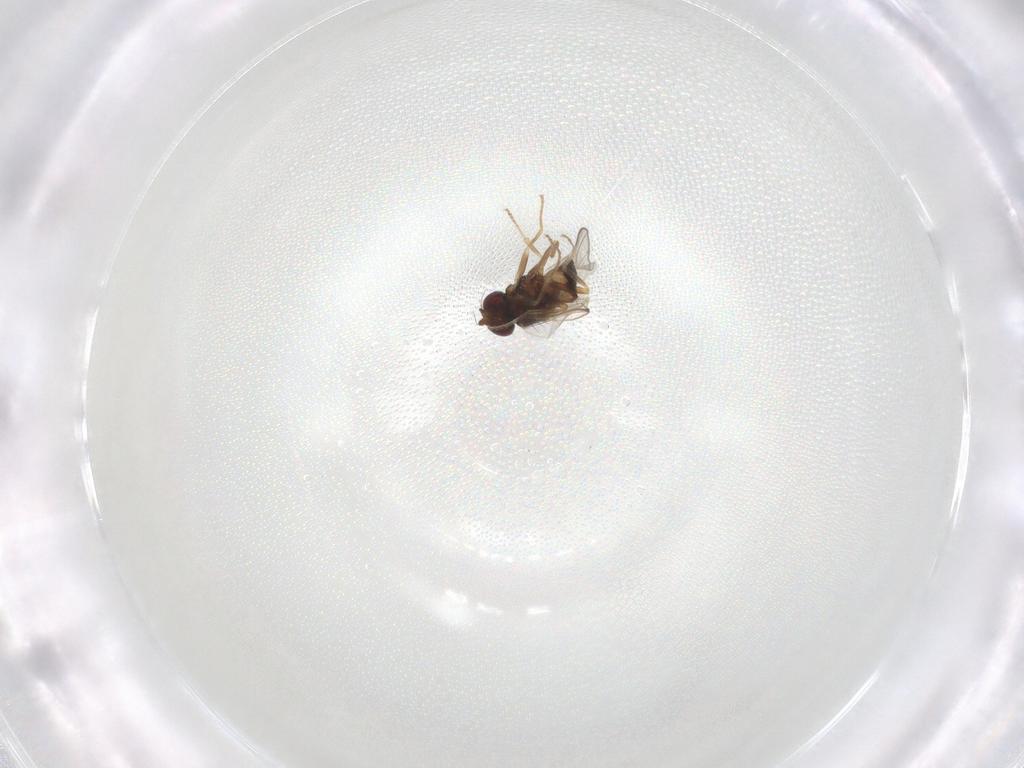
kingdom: Animalia
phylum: Arthropoda
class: Insecta
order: Diptera
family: Chloropidae
